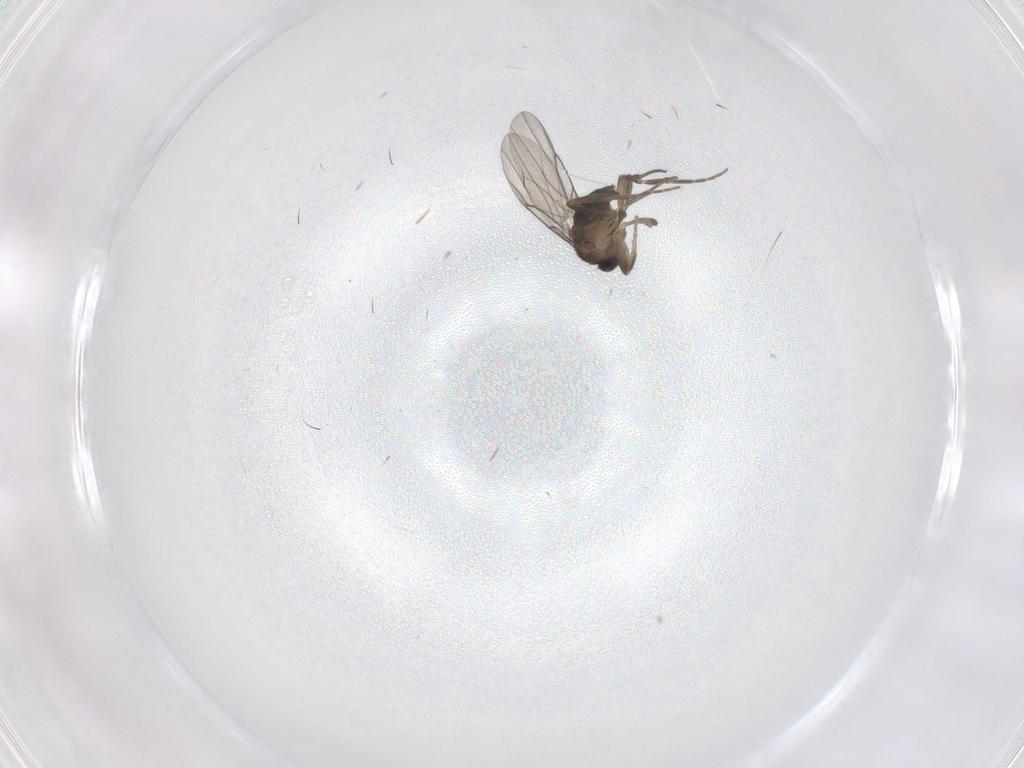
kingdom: Animalia
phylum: Arthropoda
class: Insecta
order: Diptera
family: Cecidomyiidae
